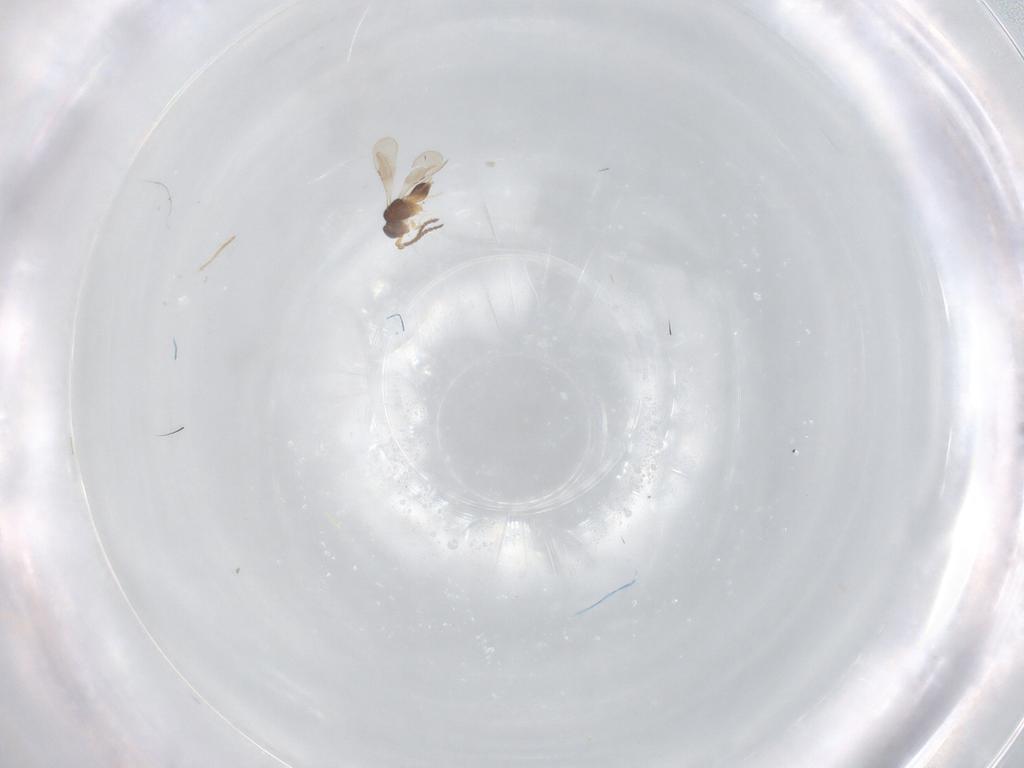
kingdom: Animalia
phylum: Arthropoda
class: Insecta
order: Hymenoptera
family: Ceraphronidae
